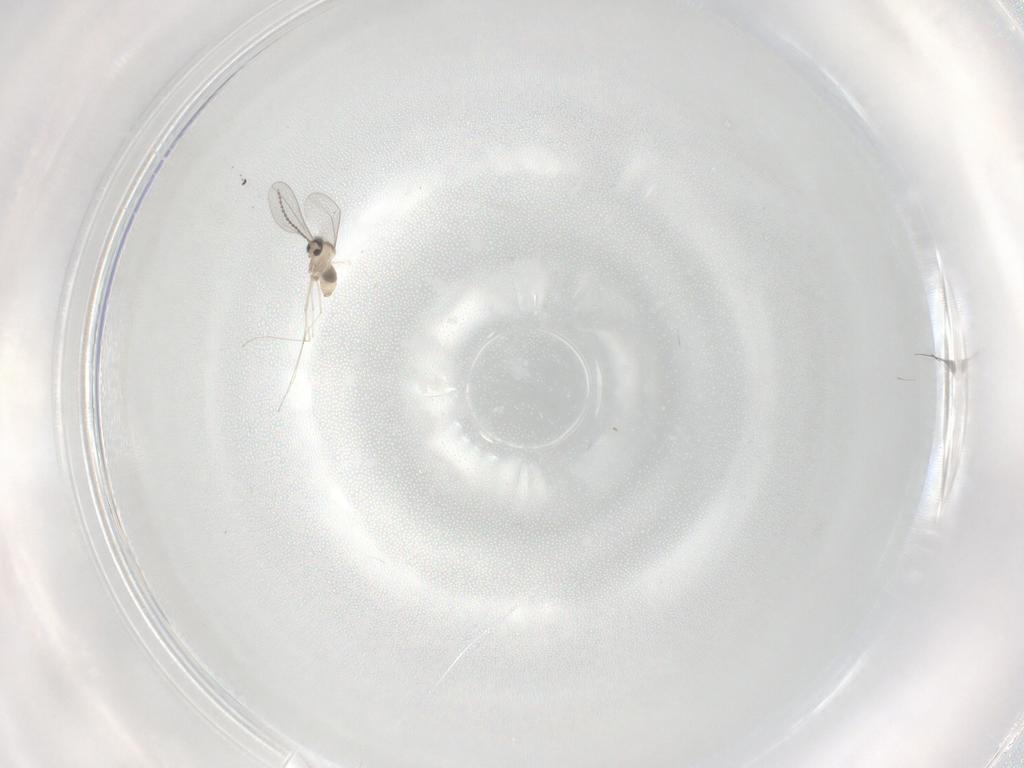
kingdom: Animalia
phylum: Arthropoda
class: Insecta
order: Diptera
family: Cecidomyiidae
